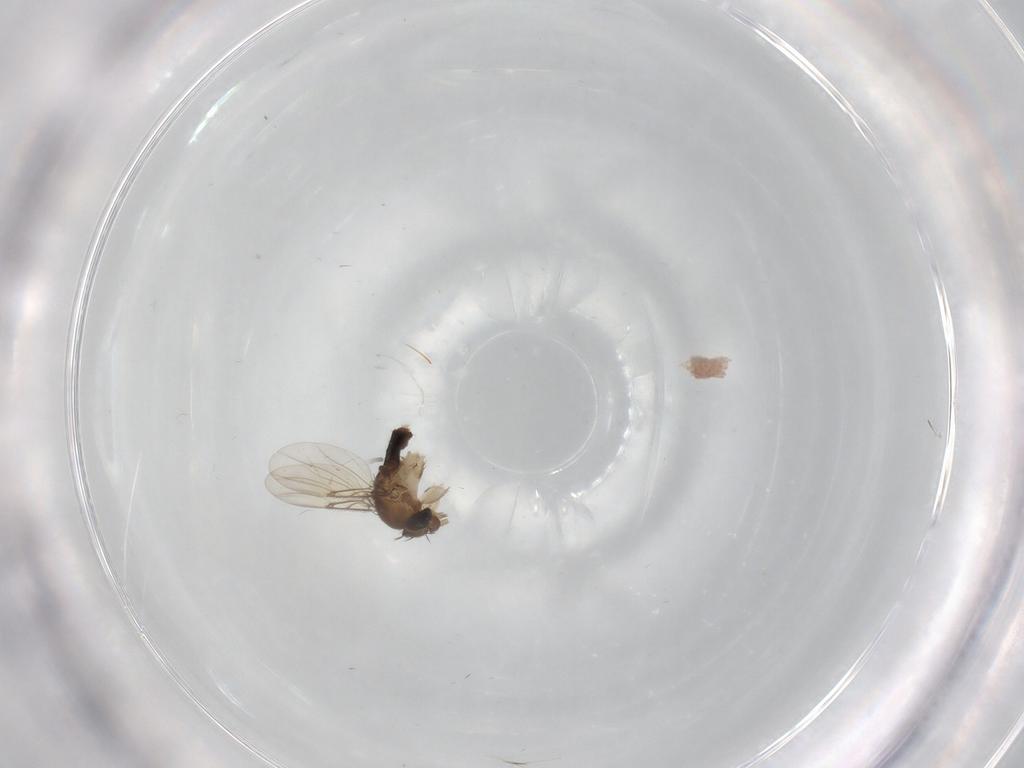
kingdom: Animalia
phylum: Arthropoda
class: Insecta
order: Diptera
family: Phoridae
